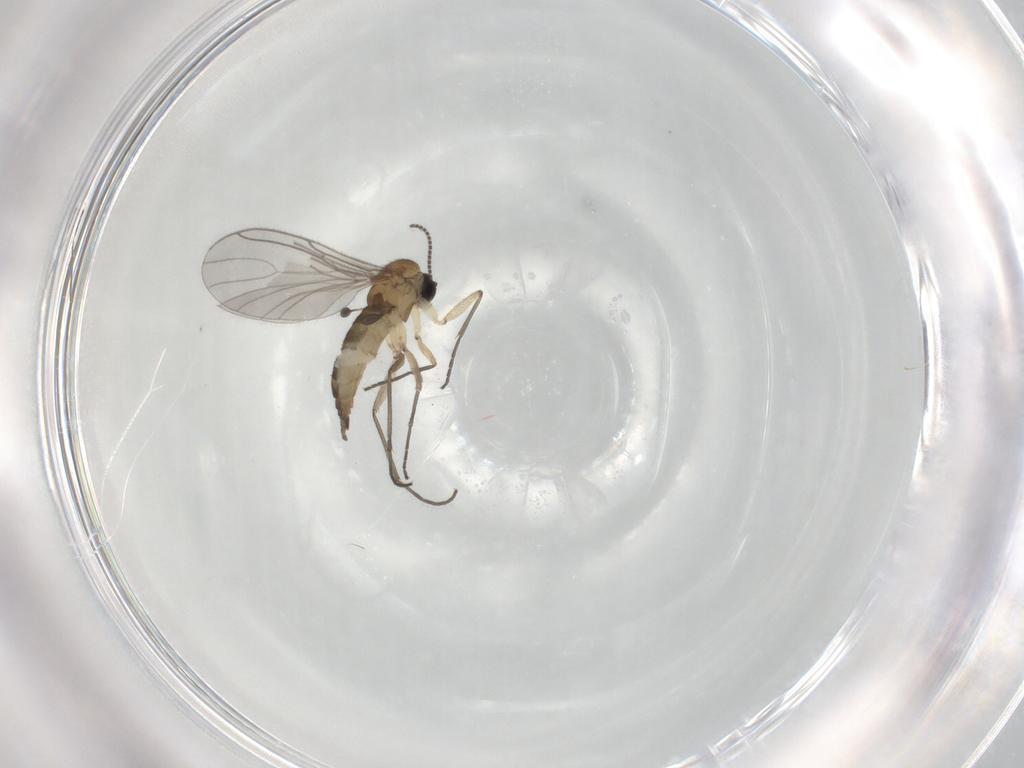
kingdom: Animalia
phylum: Arthropoda
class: Insecta
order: Diptera
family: Sciaridae
